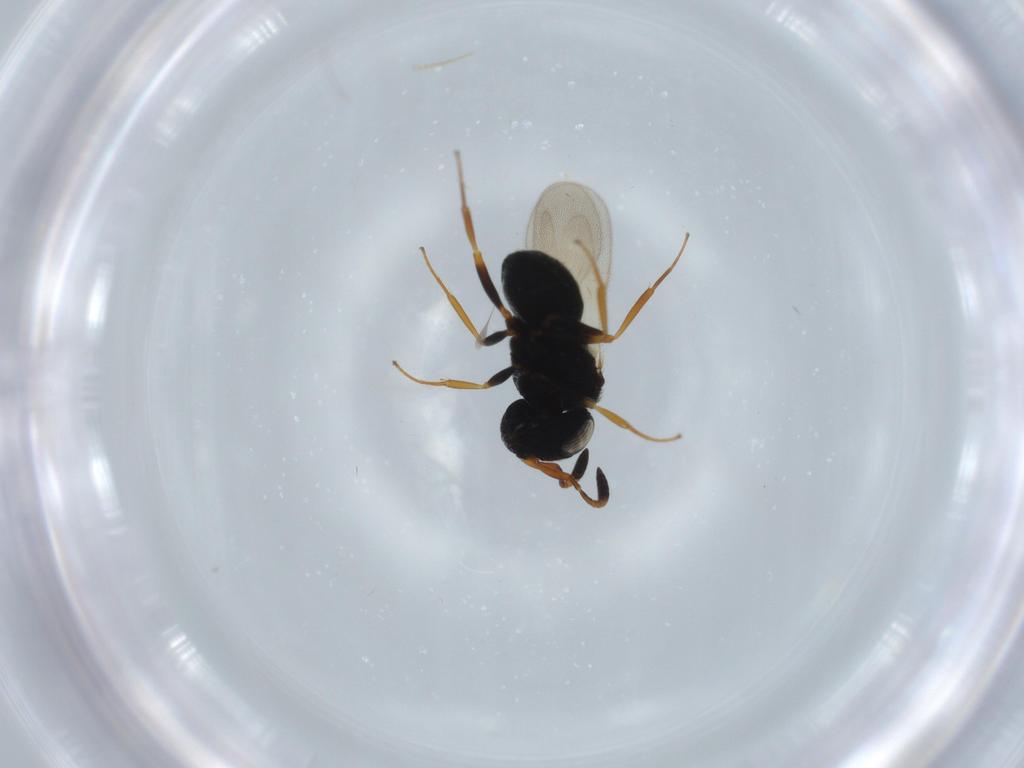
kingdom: Animalia
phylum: Arthropoda
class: Insecta
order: Hymenoptera
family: Scelionidae
